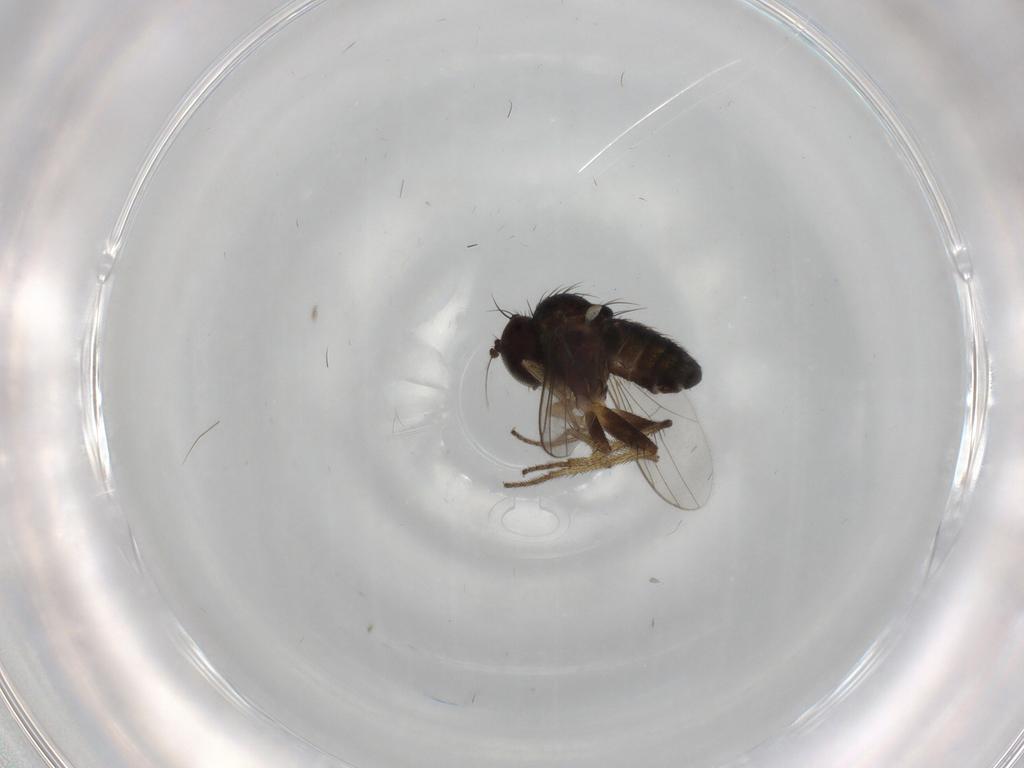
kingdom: Animalia
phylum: Arthropoda
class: Insecta
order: Diptera
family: Dolichopodidae
